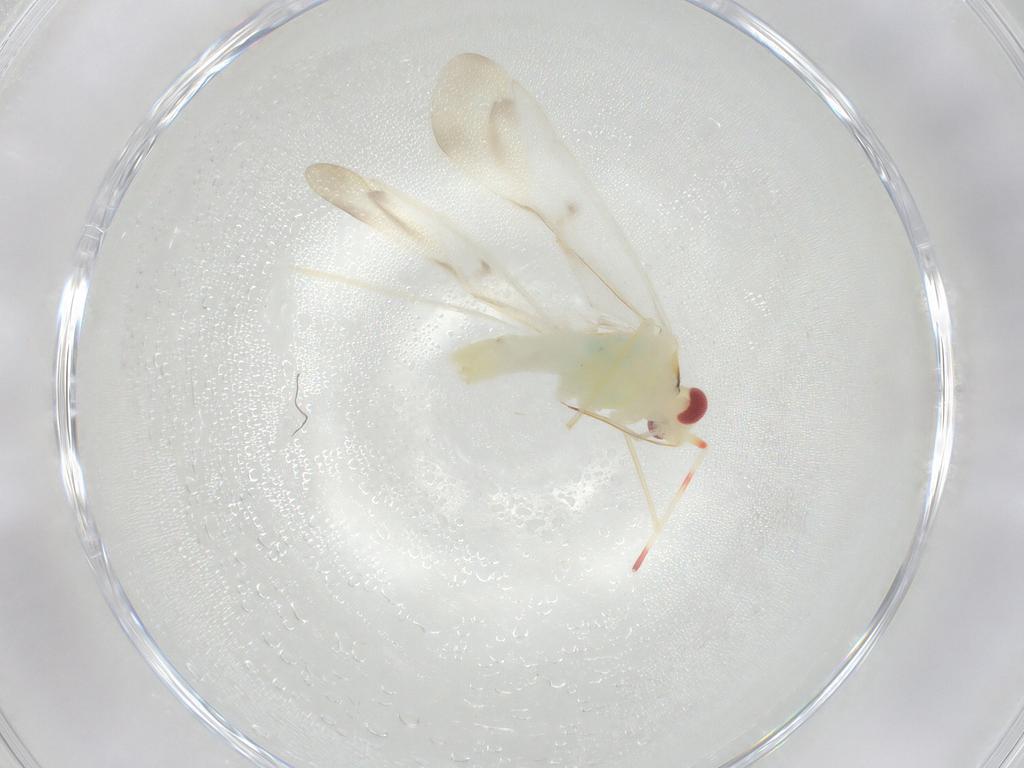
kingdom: Animalia
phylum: Arthropoda
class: Insecta
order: Hemiptera
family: Miridae
